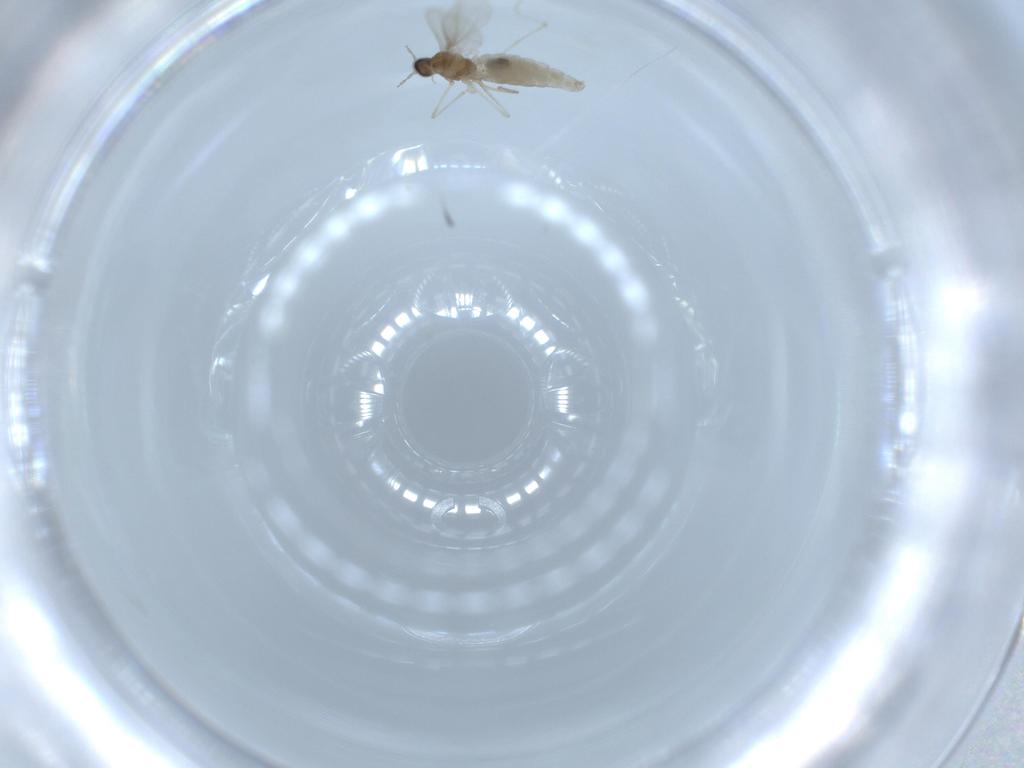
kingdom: Animalia
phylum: Arthropoda
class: Insecta
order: Diptera
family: Cecidomyiidae
